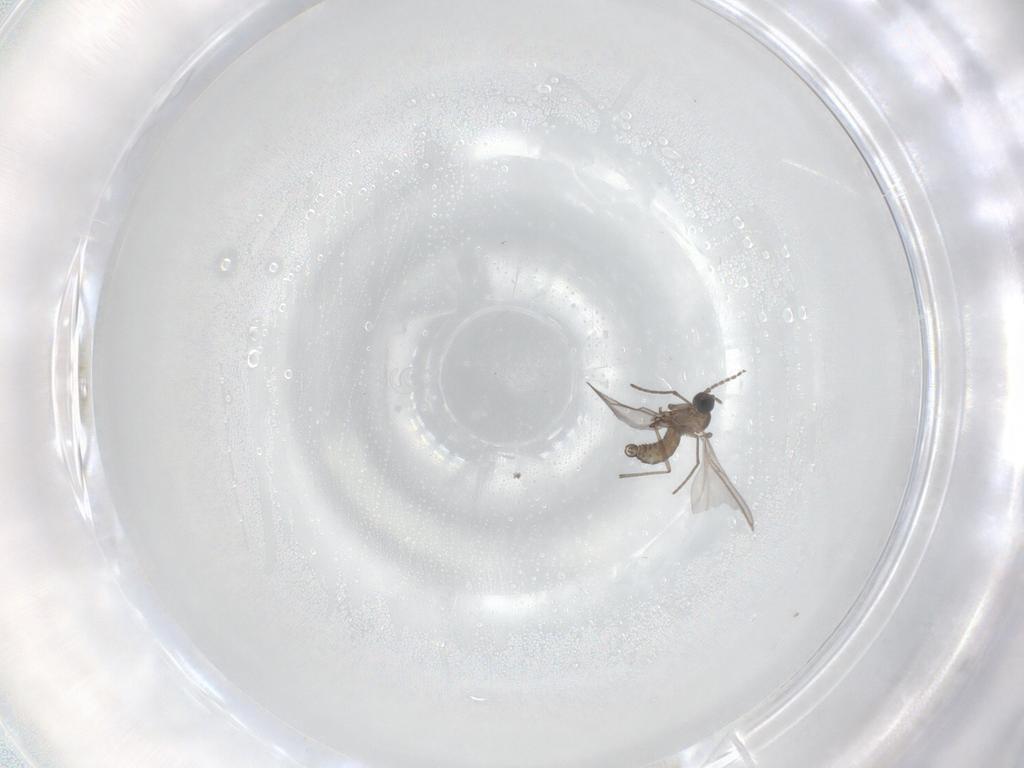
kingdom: Animalia
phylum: Arthropoda
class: Insecta
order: Diptera
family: Sciaridae
